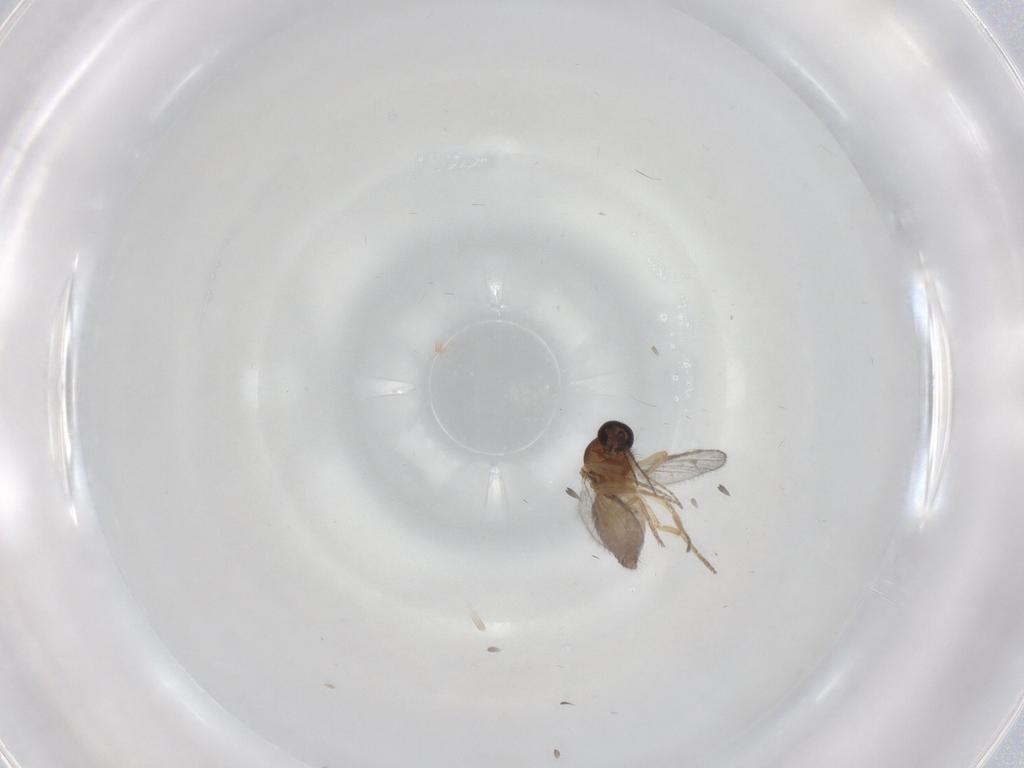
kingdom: Animalia
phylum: Arthropoda
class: Insecta
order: Diptera
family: Ceratopogonidae
